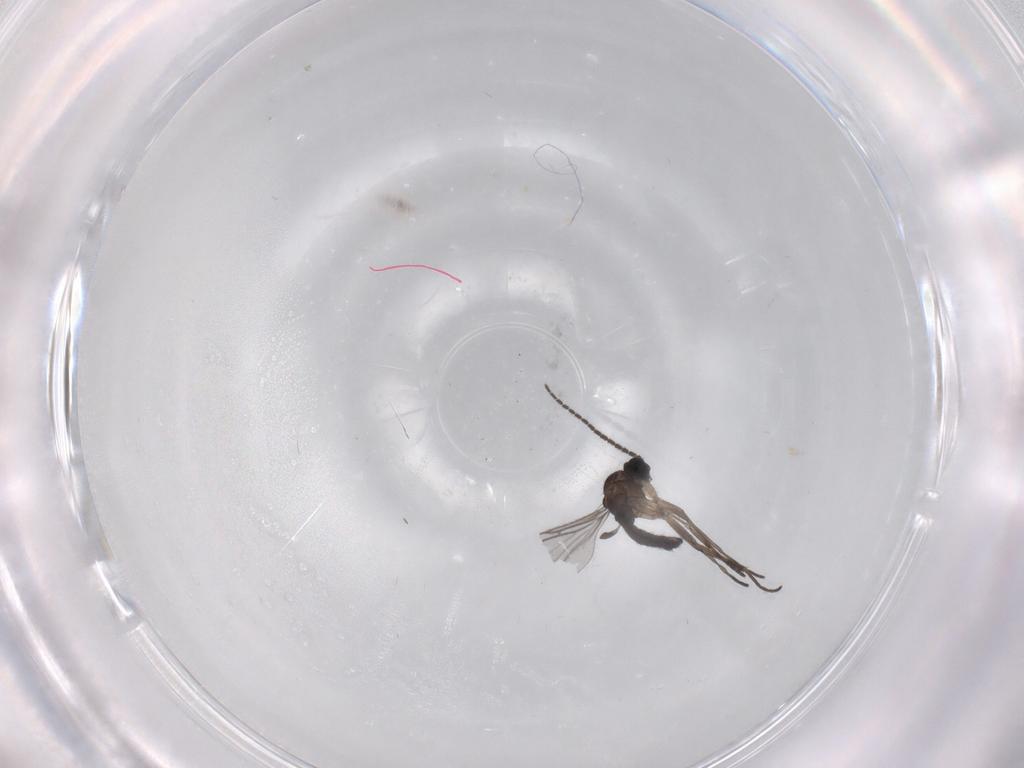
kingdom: Animalia
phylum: Arthropoda
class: Insecta
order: Diptera
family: Sciaridae
